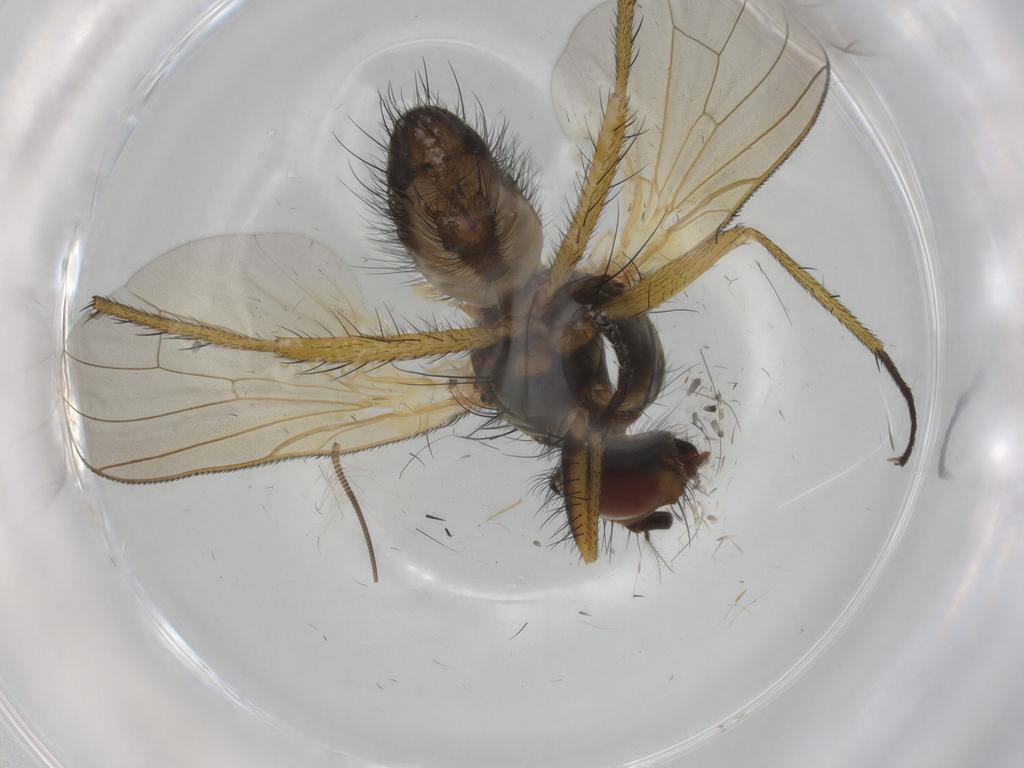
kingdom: Animalia
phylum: Arthropoda
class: Insecta
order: Diptera
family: Anthomyiidae
